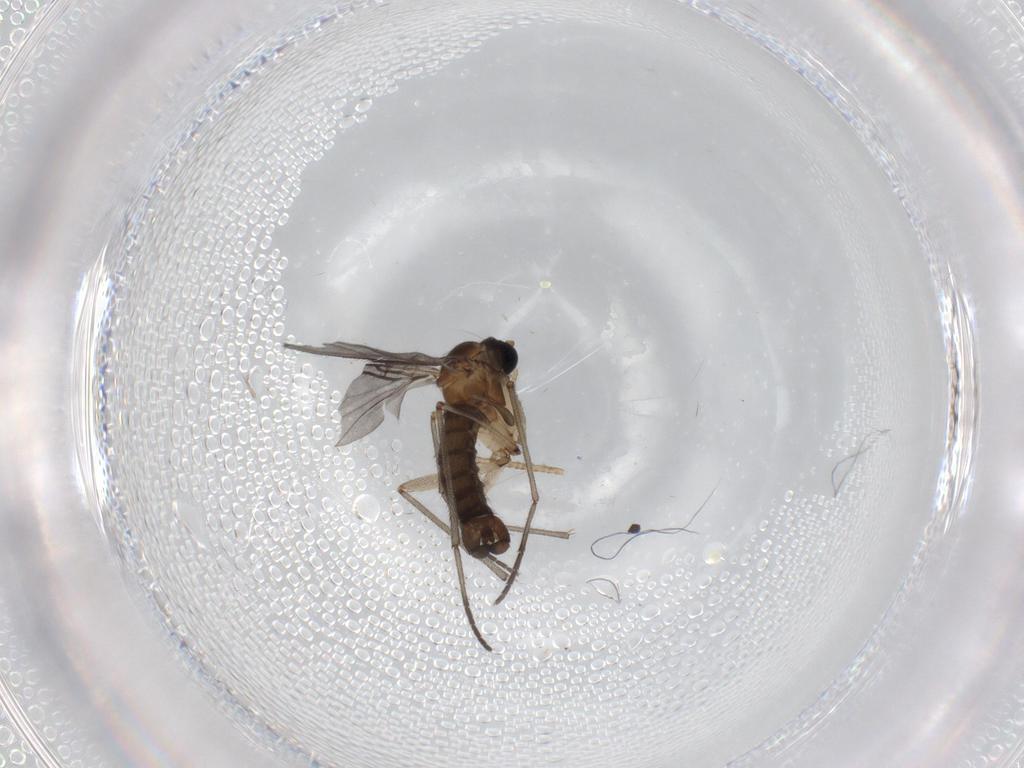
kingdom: Animalia
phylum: Arthropoda
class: Insecta
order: Diptera
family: Sciaridae
